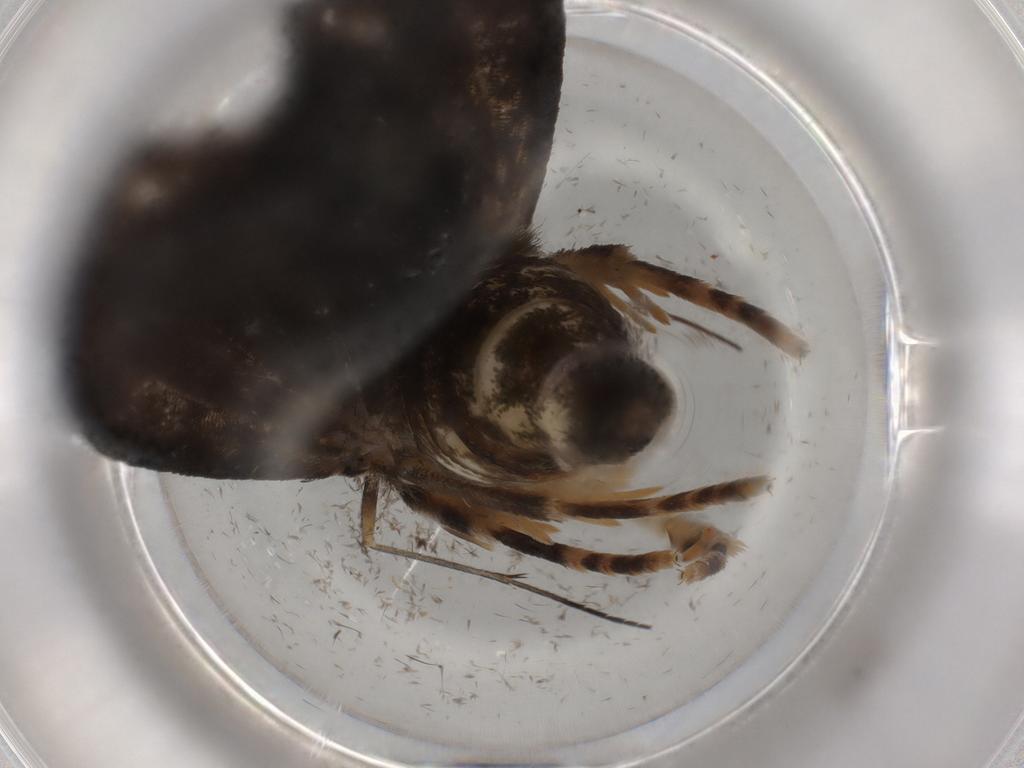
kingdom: Animalia
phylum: Arthropoda
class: Insecta
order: Lepidoptera
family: Immidae
